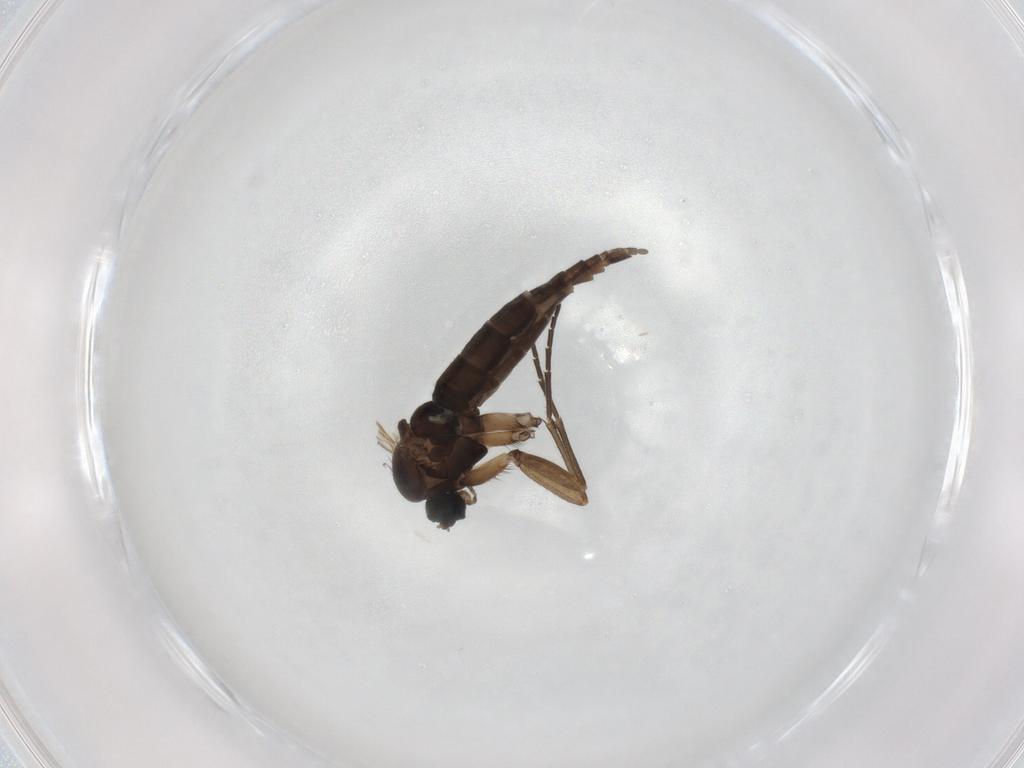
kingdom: Animalia
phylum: Arthropoda
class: Insecta
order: Diptera
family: Sciaridae
